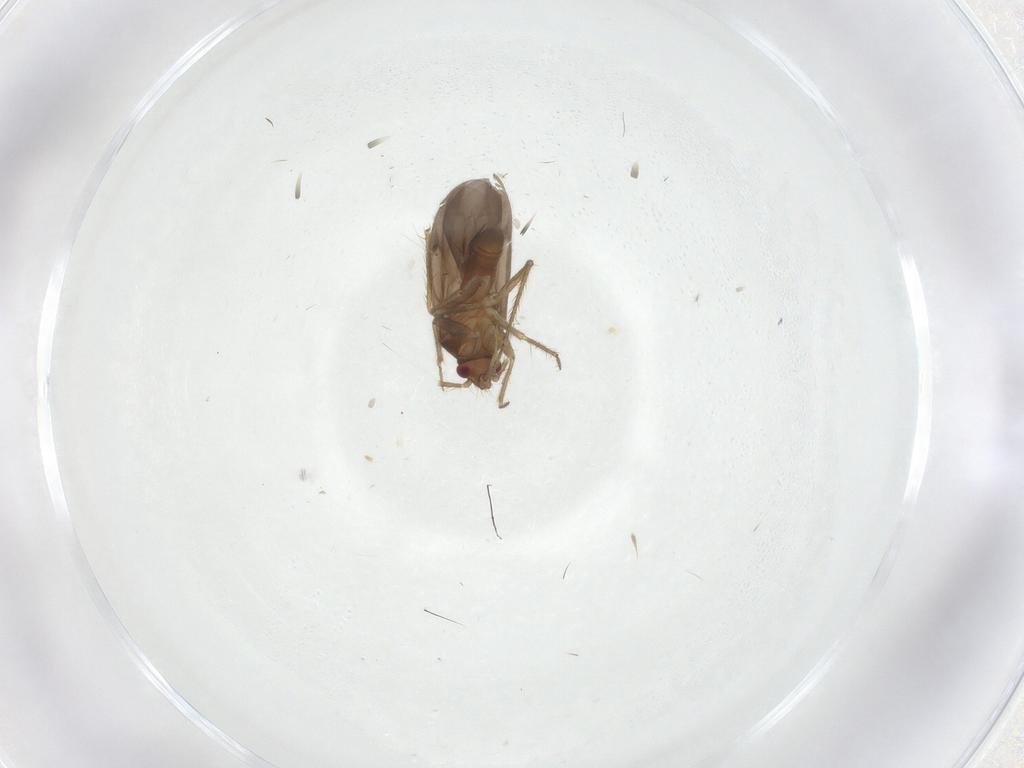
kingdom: Animalia
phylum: Arthropoda
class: Insecta
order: Hemiptera
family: Ceratocombidae
